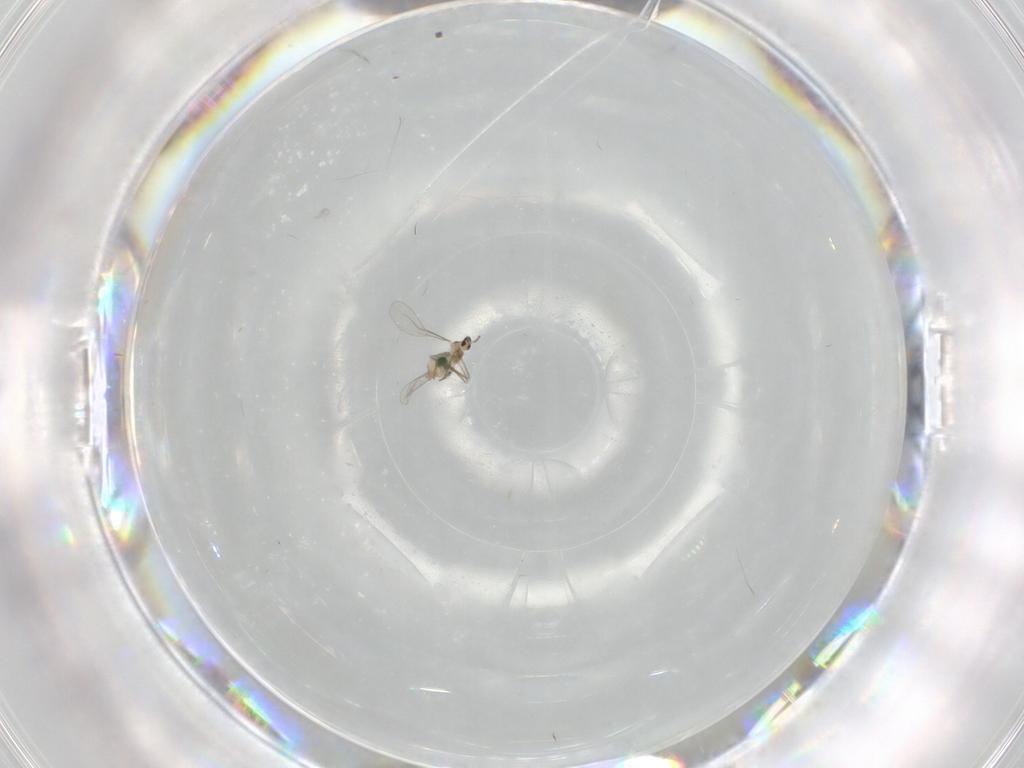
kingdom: Animalia
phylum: Arthropoda
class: Insecta
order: Diptera
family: Cecidomyiidae
